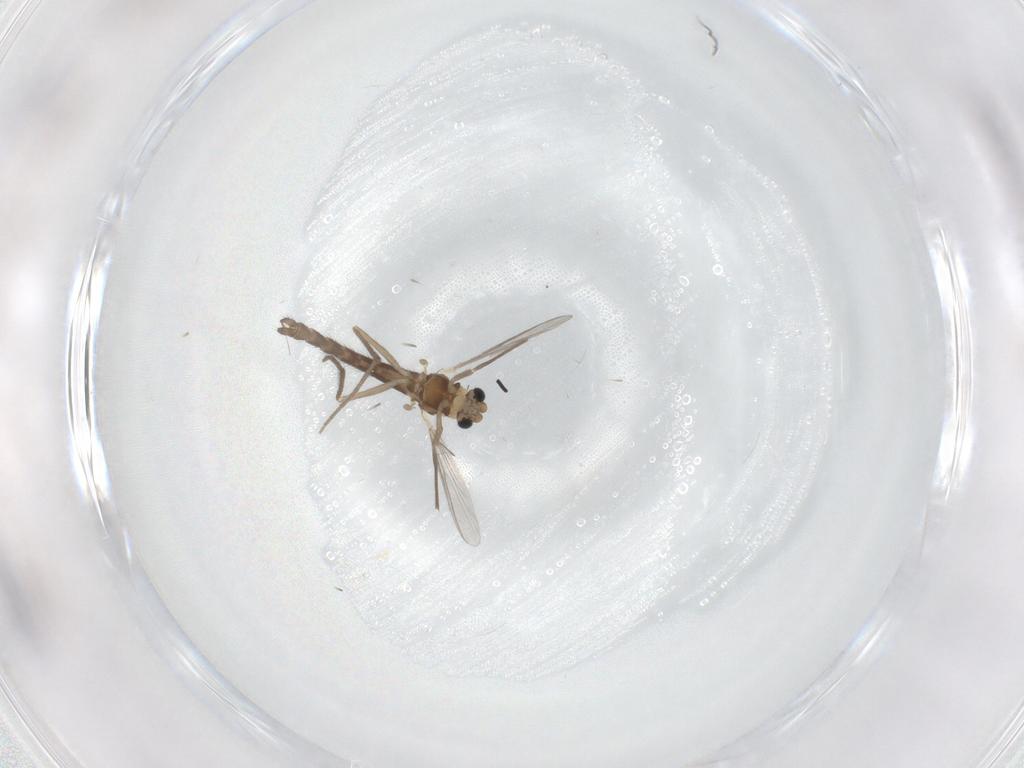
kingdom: Animalia
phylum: Arthropoda
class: Insecta
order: Diptera
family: Chironomidae
